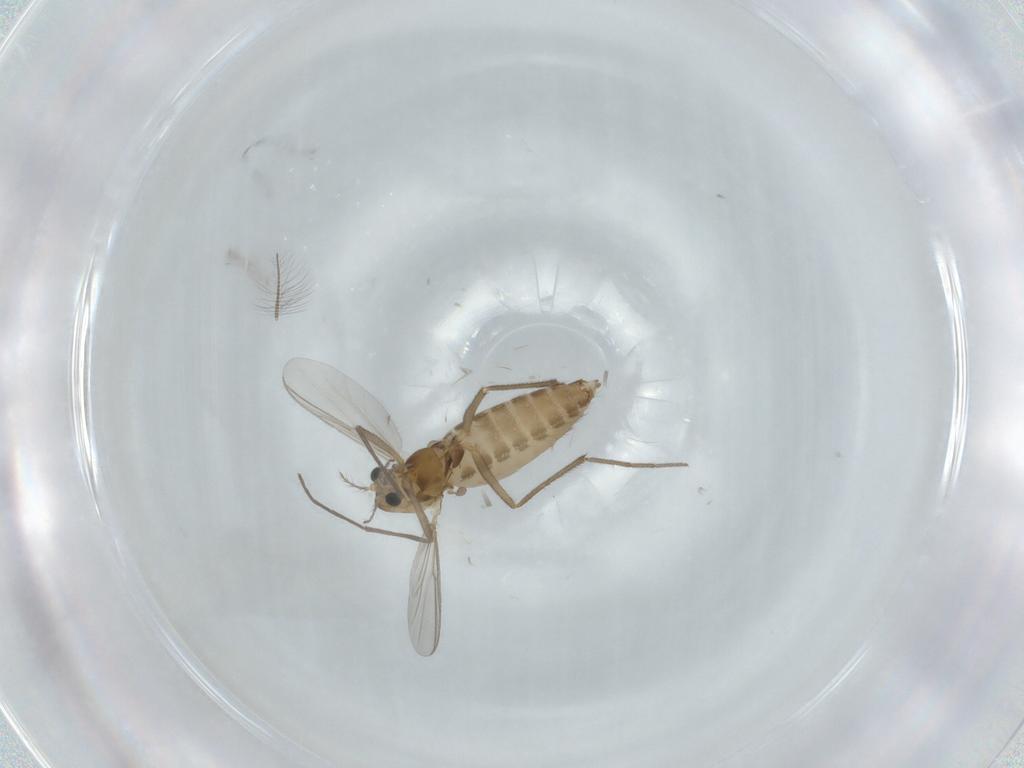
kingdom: Animalia
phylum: Arthropoda
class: Insecta
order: Diptera
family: Chironomidae
